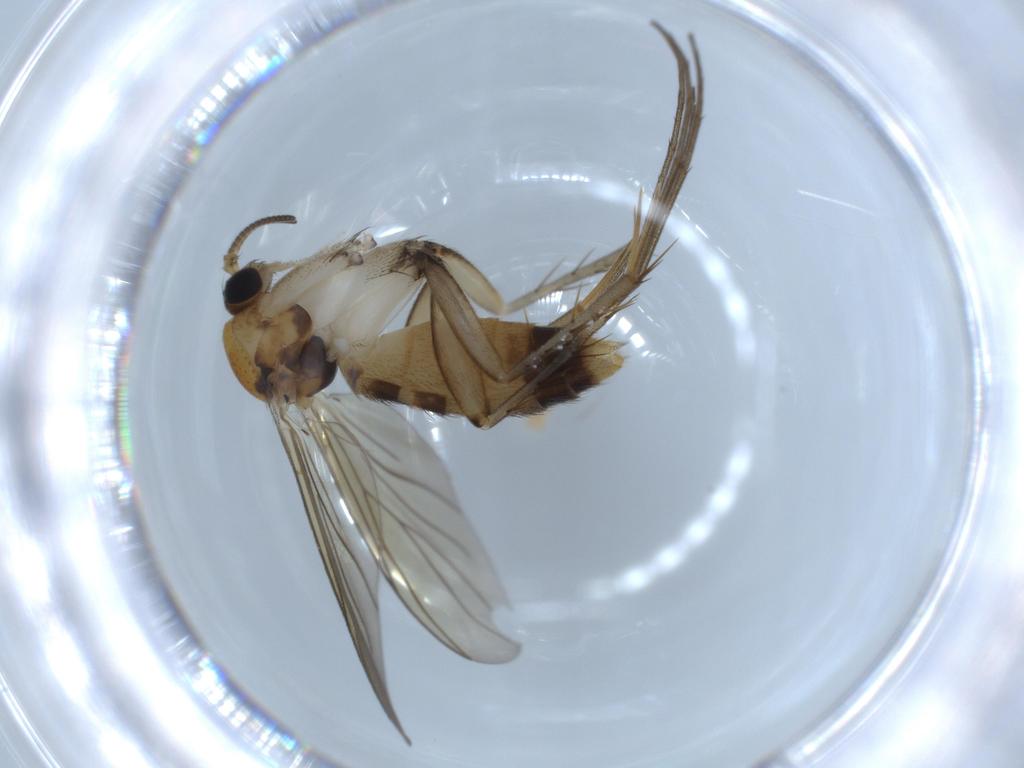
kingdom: Animalia
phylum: Arthropoda
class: Insecta
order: Diptera
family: Mycetophilidae
